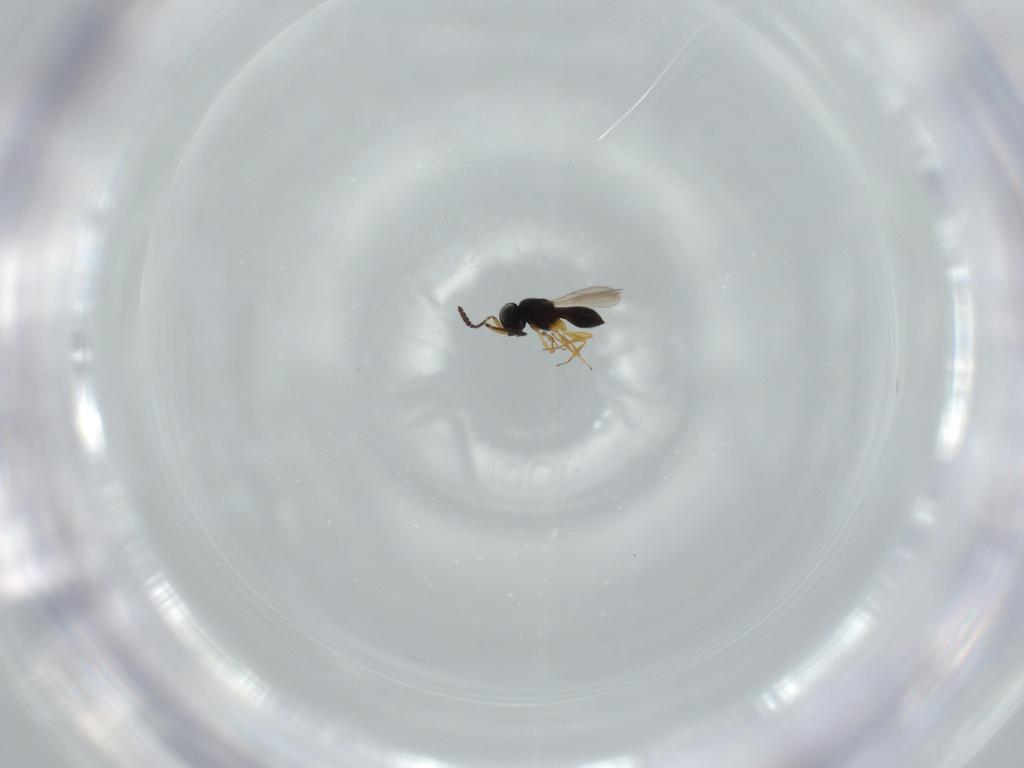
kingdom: Animalia
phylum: Arthropoda
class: Insecta
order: Hymenoptera
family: Scelionidae
